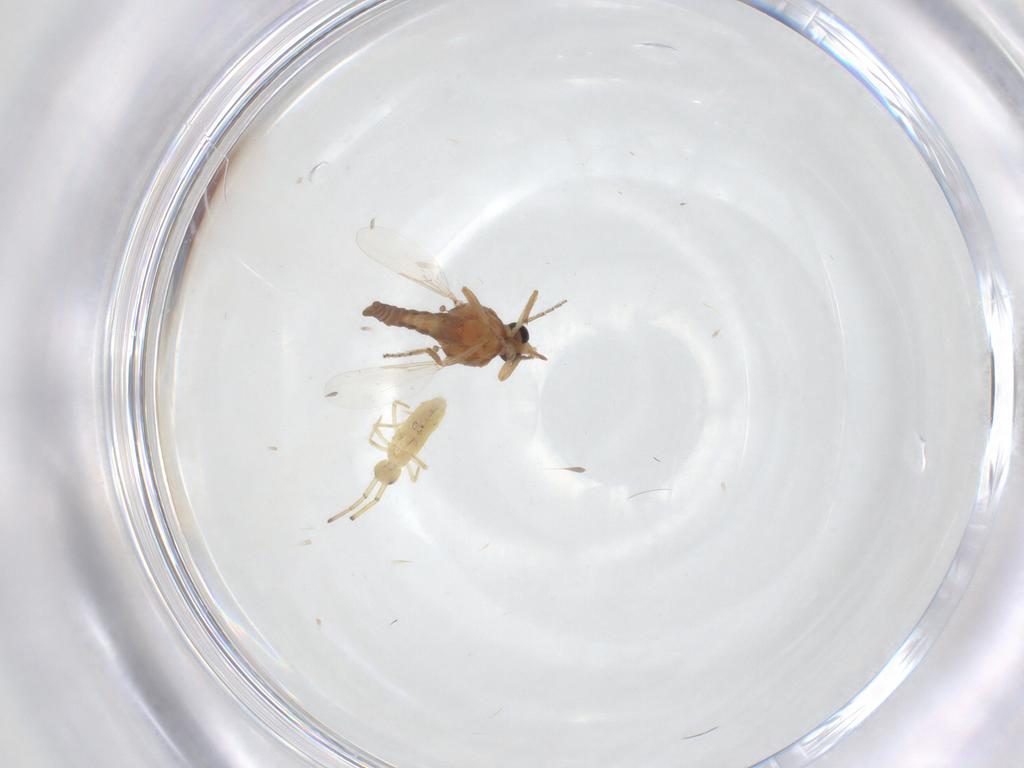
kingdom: Animalia
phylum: Arthropoda
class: Insecta
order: Diptera
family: Ceratopogonidae
